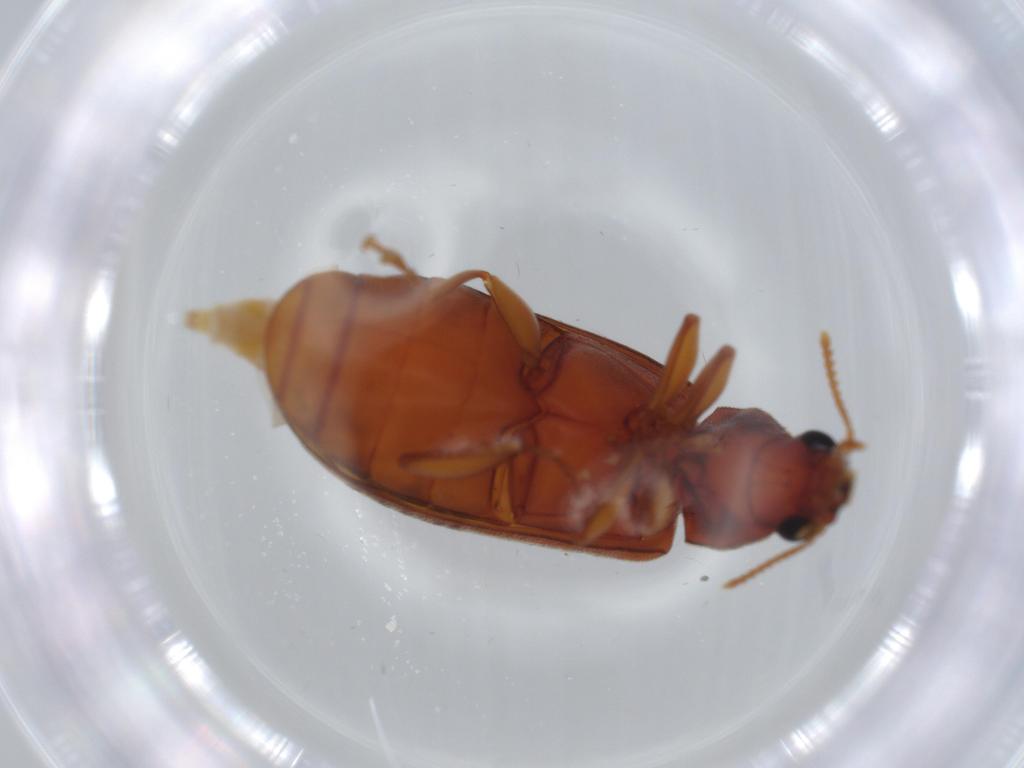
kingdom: Animalia
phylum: Arthropoda
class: Insecta
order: Coleoptera
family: Mycteridae
